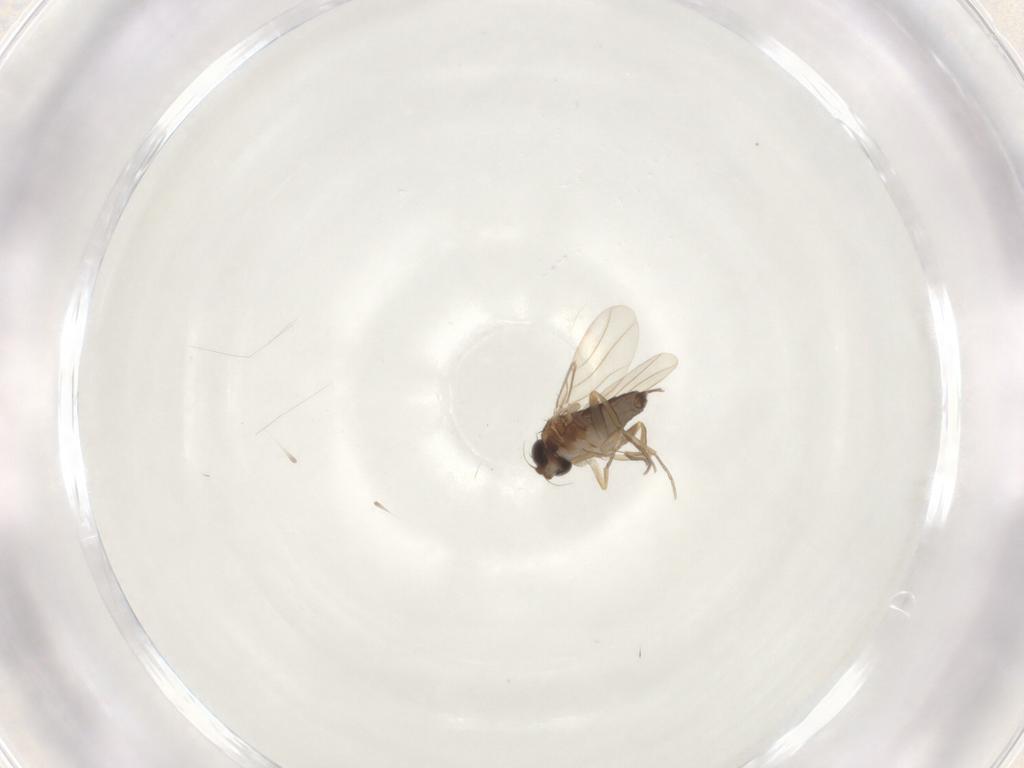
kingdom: Animalia
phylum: Arthropoda
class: Insecta
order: Diptera
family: Phoridae
